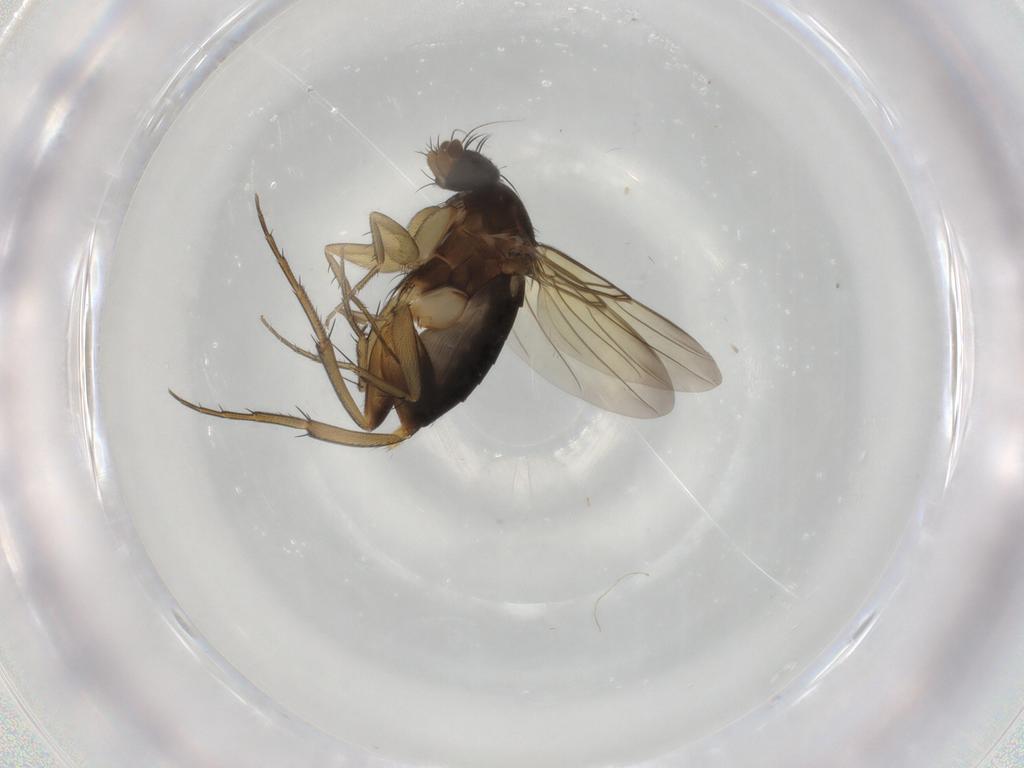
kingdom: Animalia
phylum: Arthropoda
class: Insecta
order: Diptera
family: Phoridae
